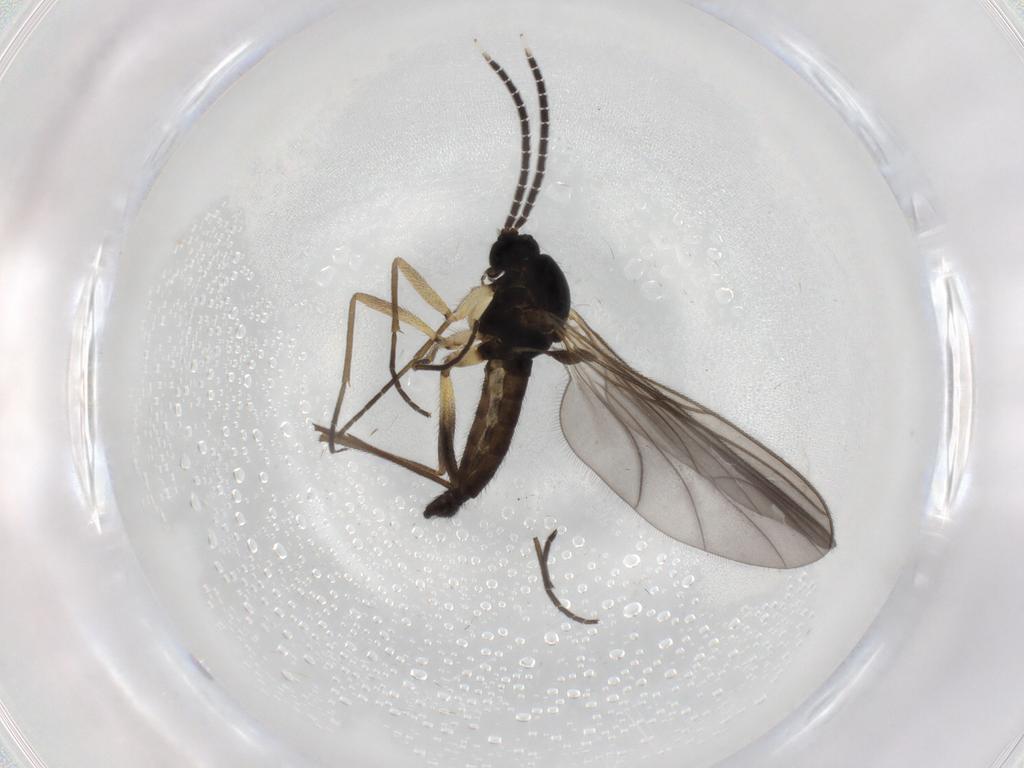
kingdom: Animalia
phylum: Arthropoda
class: Insecta
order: Diptera
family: Sciaridae
